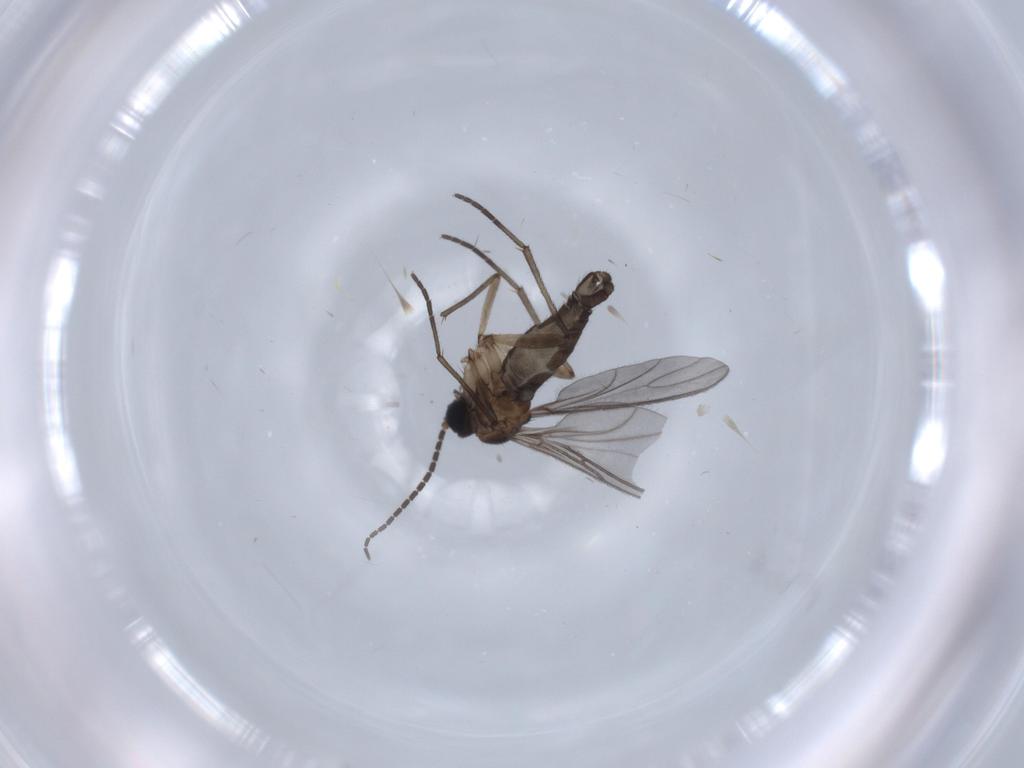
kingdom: Animalia
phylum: Arthropoda
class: Insecta
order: Diptera
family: Sciaridae
